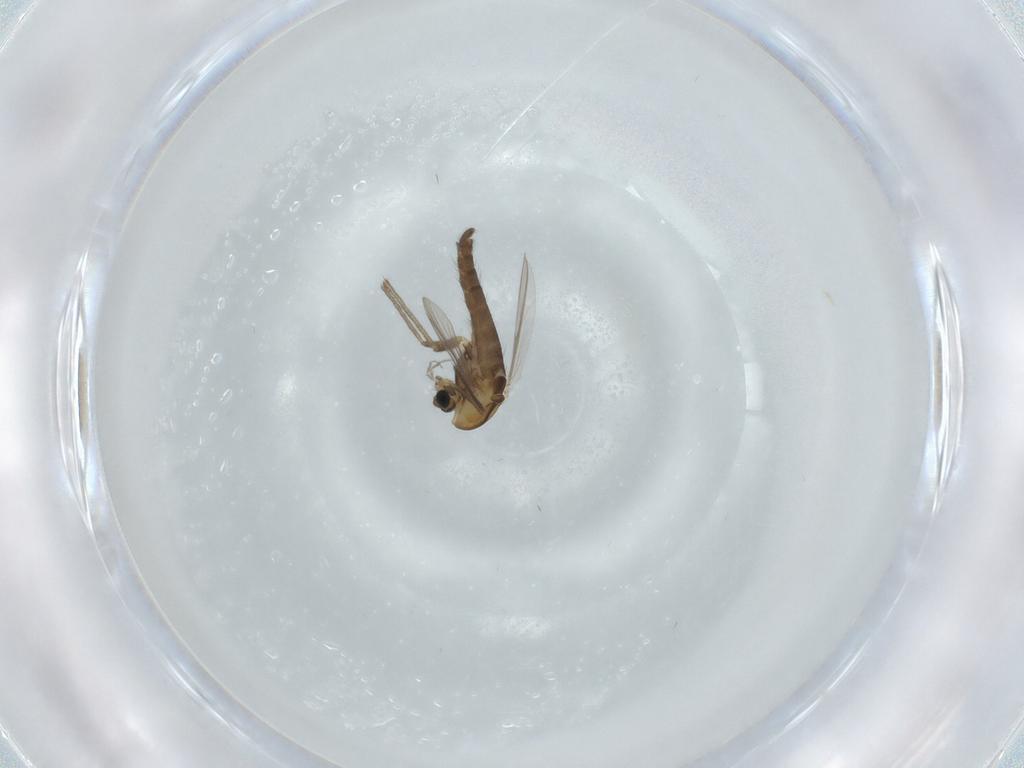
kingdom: Animalia
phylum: Arthropoda
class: Insecta
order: Diptera
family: Chironomidae
